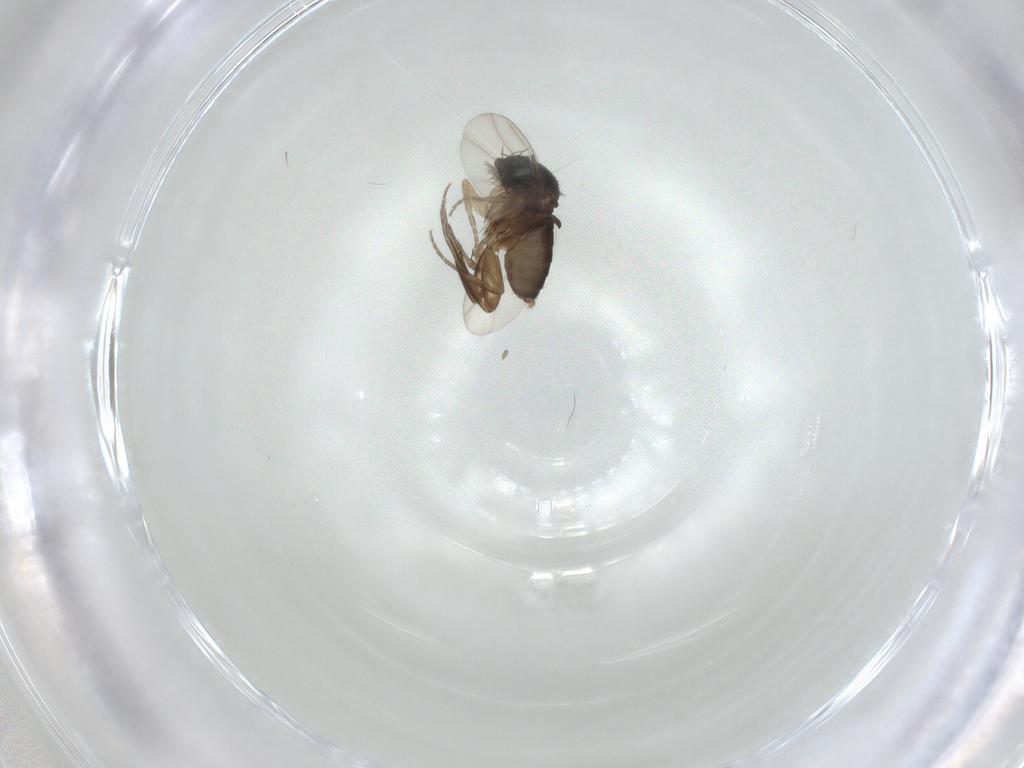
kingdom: Animalia
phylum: Arthropoda
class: Insecta
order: Diptera
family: Phoridae
